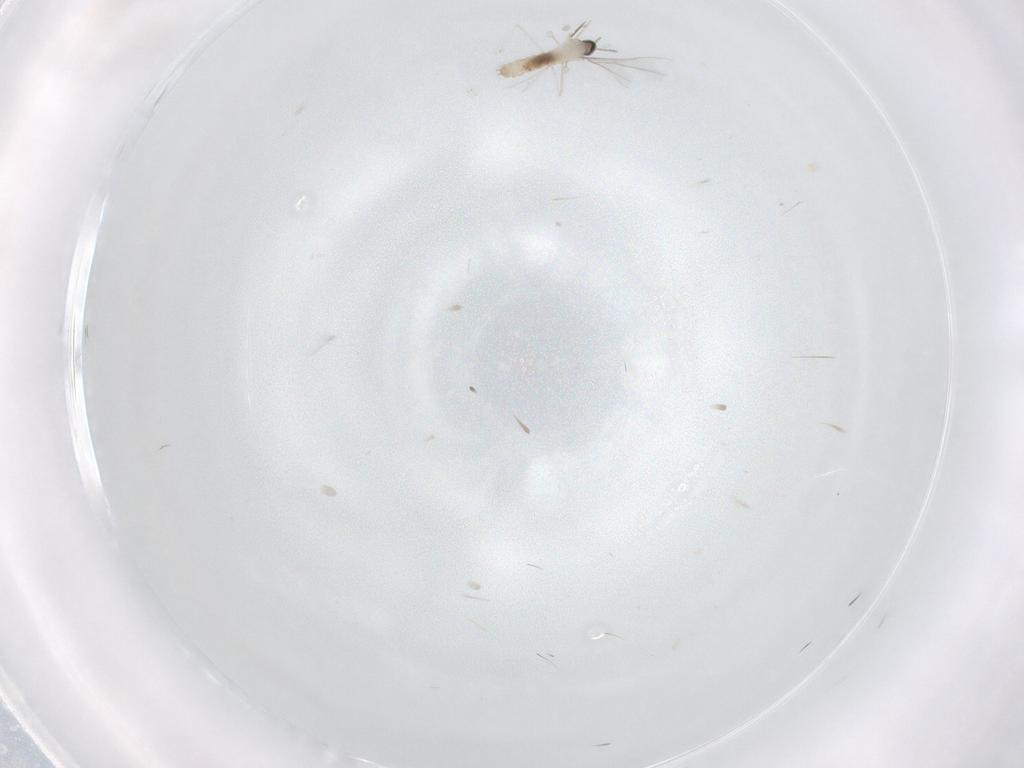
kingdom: Animalia
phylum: Arthropoda
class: Insecta
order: Diptera
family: Cecidomyiidae
